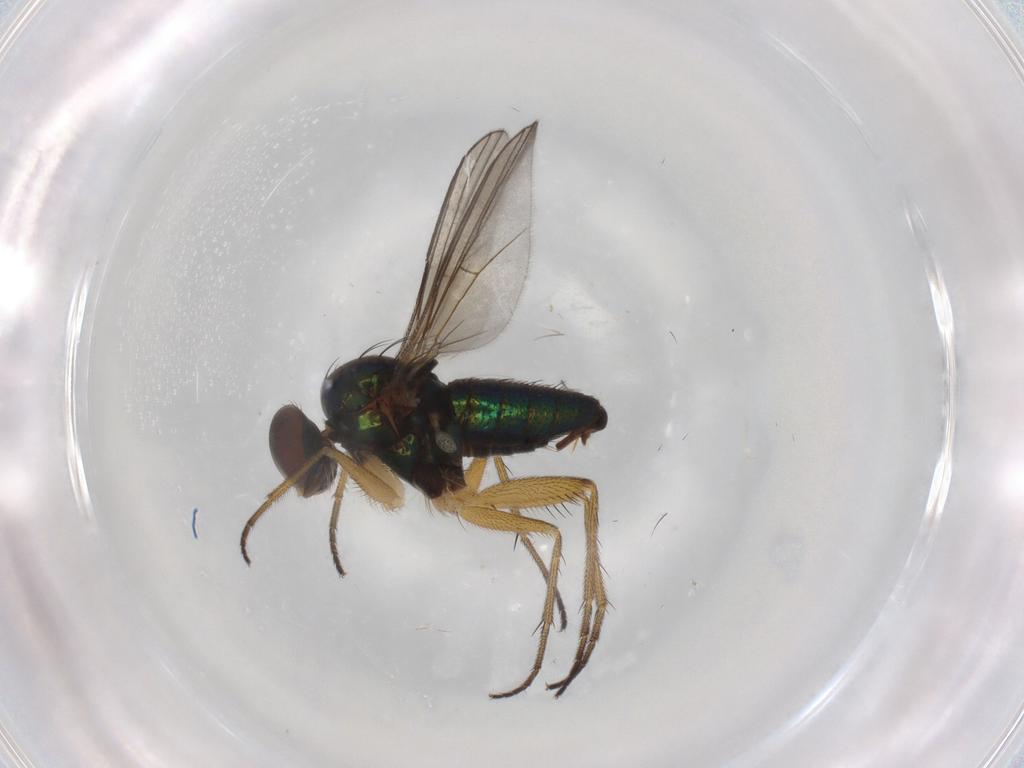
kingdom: Animalia
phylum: Arthropoda
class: Insecta
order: Diptera
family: Dolichopodidae
